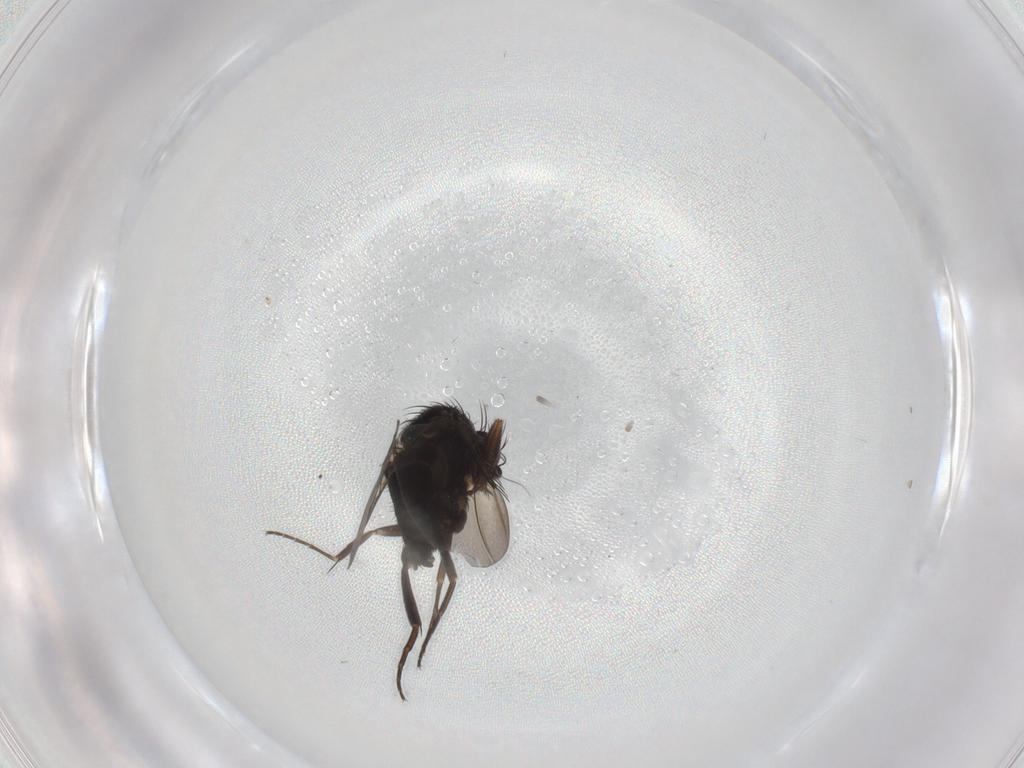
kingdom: Animalia
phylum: Arthropoda
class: Insecta
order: Diptera
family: Phoridae
